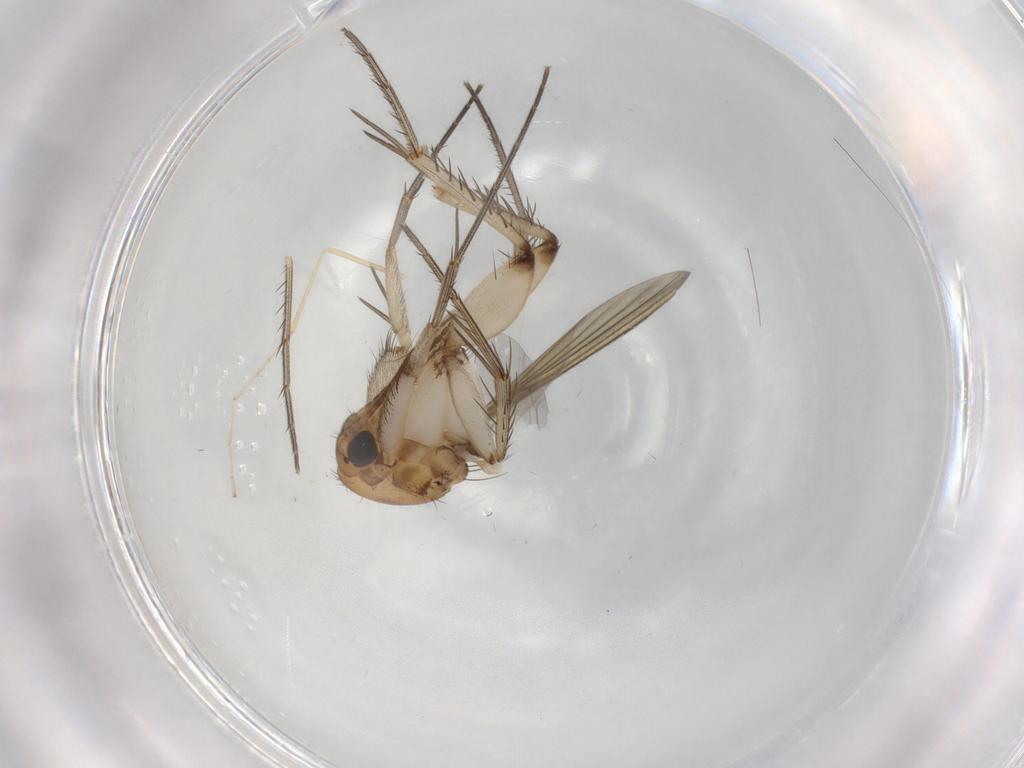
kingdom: Animalia
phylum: Arthropoda
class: Insecta
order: Diptera
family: Mycetophilidae
